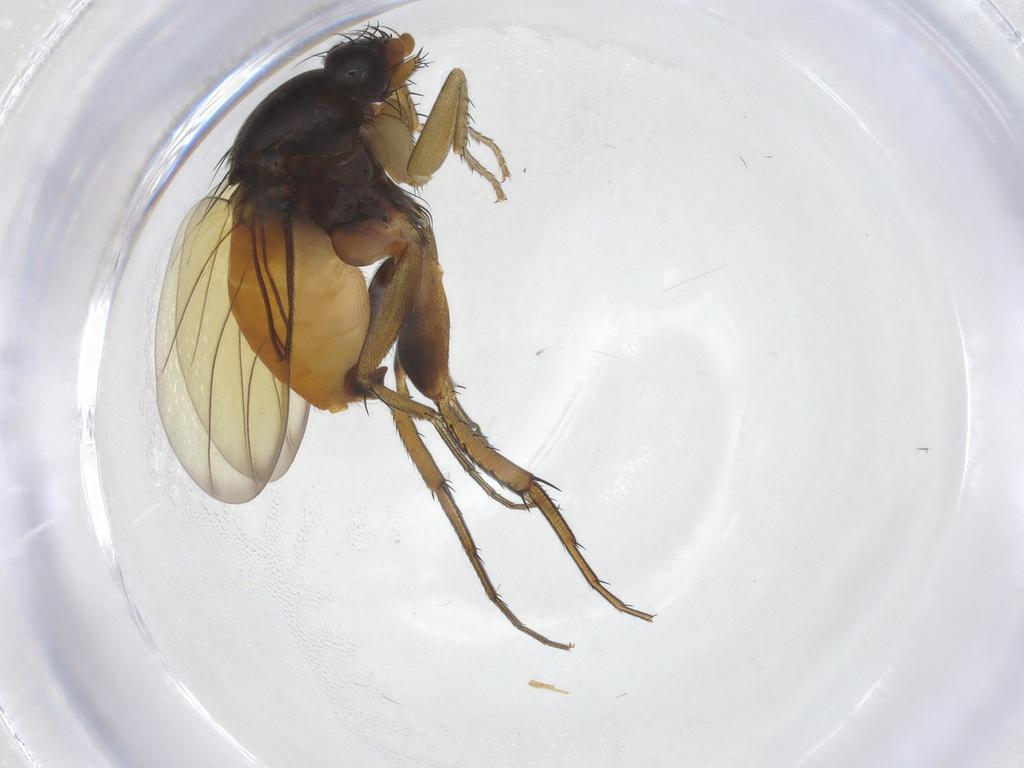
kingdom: Animalia
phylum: Arthropoda
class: Insecta
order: Diptera
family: Phoridae
